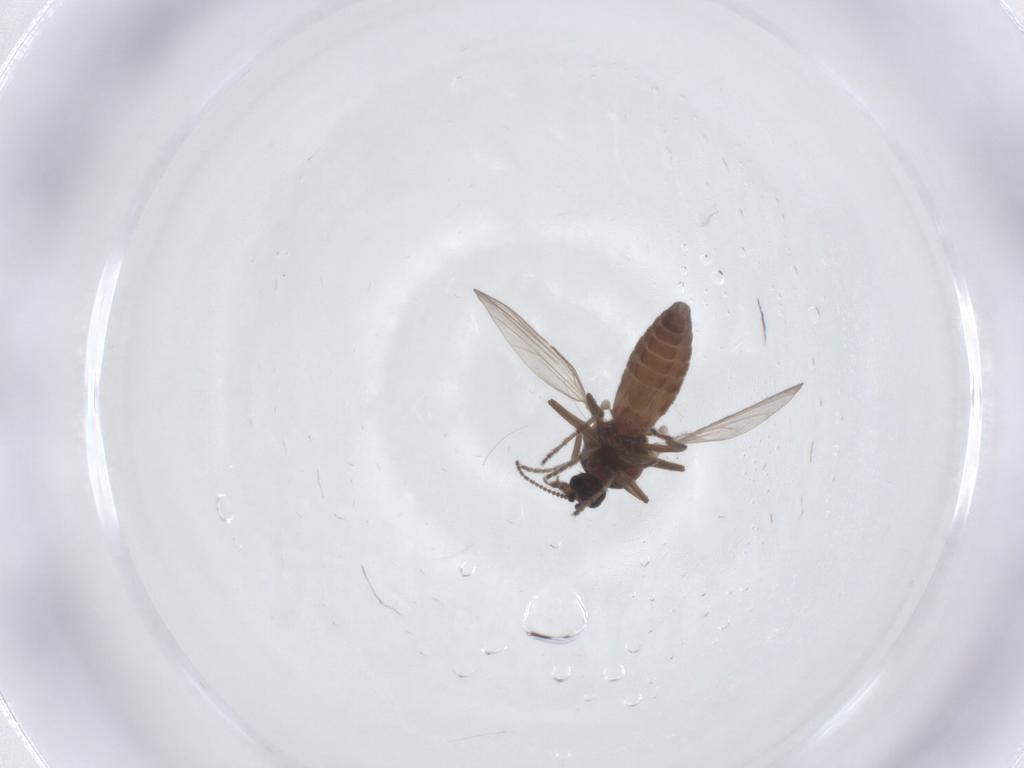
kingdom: Animalia
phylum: Arthropoda
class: Insecta
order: Diptera
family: Ceratopogonidae
